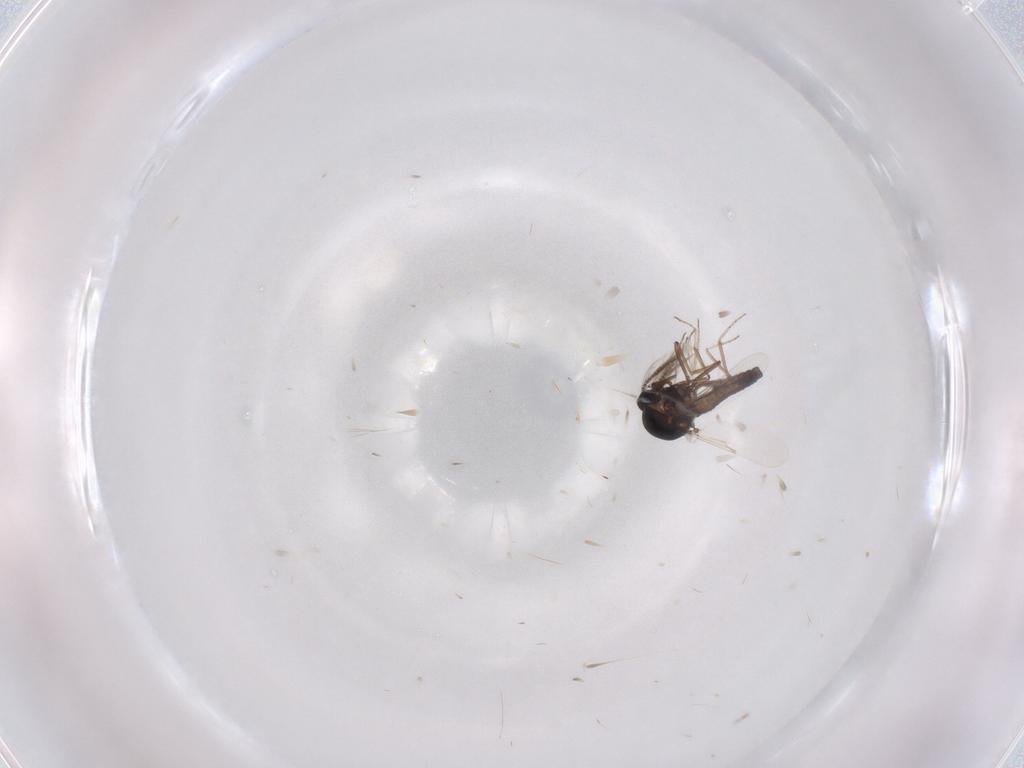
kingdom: Animalia
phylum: Arthropoda
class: Insecta
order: Diptera
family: Ceratopogonidae
